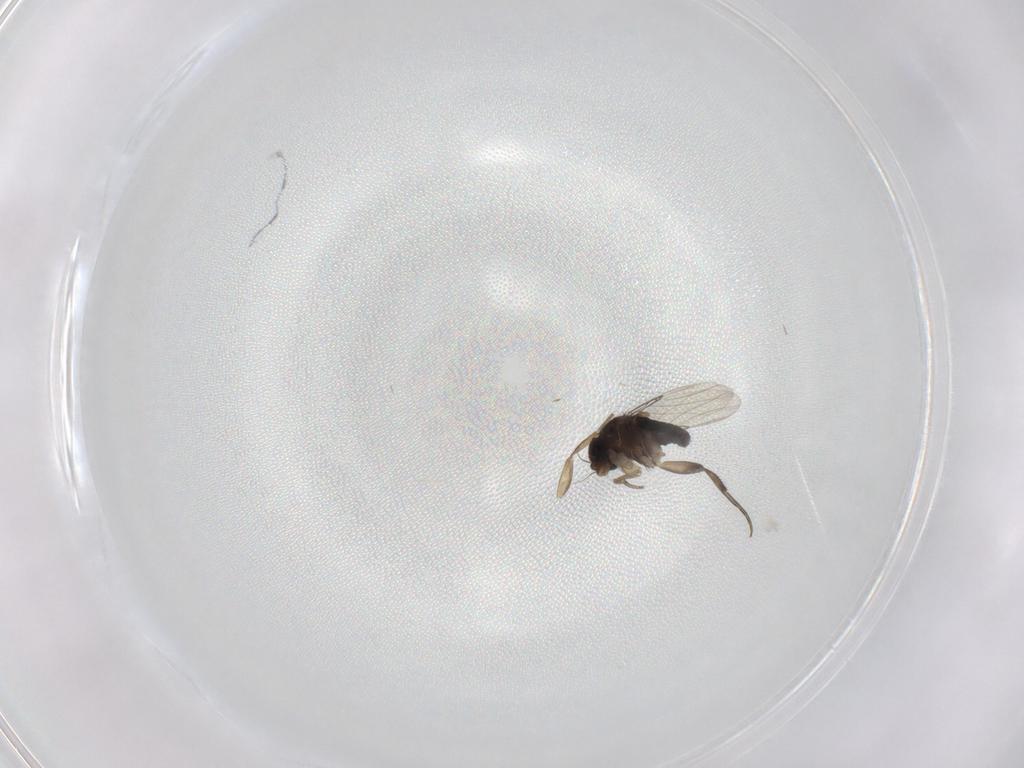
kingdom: Animalia
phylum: Arthropoda
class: Insecta
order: Diptera
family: Phoridae
